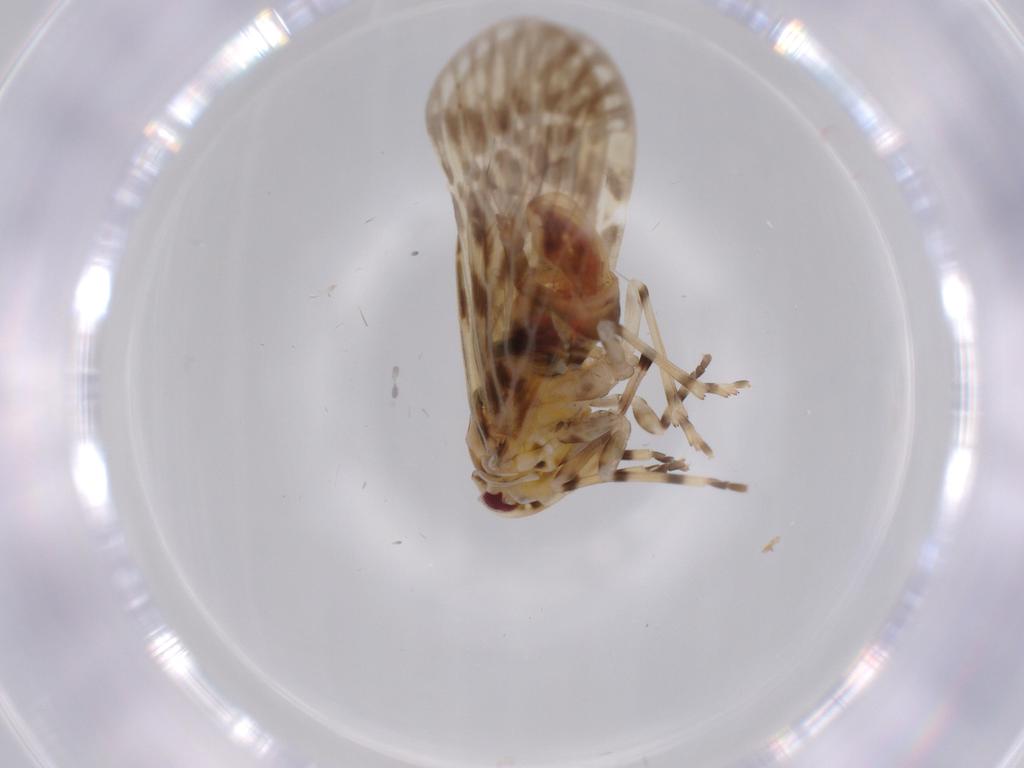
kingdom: Animalia
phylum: Arthropoda
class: Insecta
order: Hemiptera
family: Derbidae
